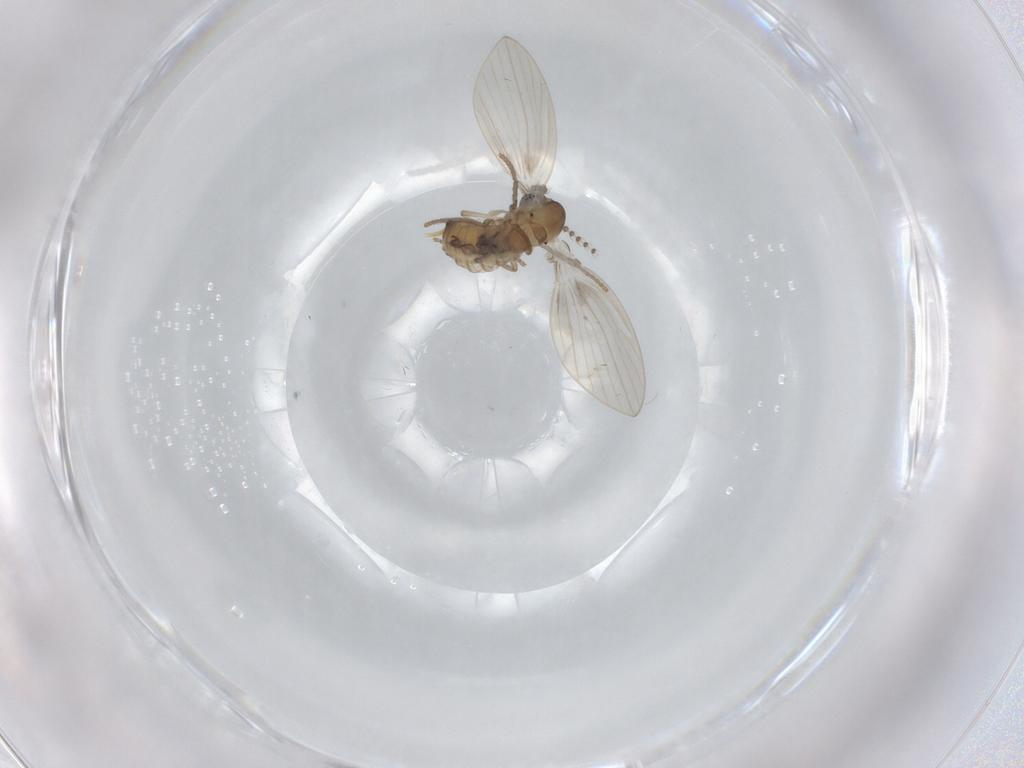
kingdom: Animalia
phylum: Arthropoda
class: Insecta
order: Diptera
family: Psychodidae
